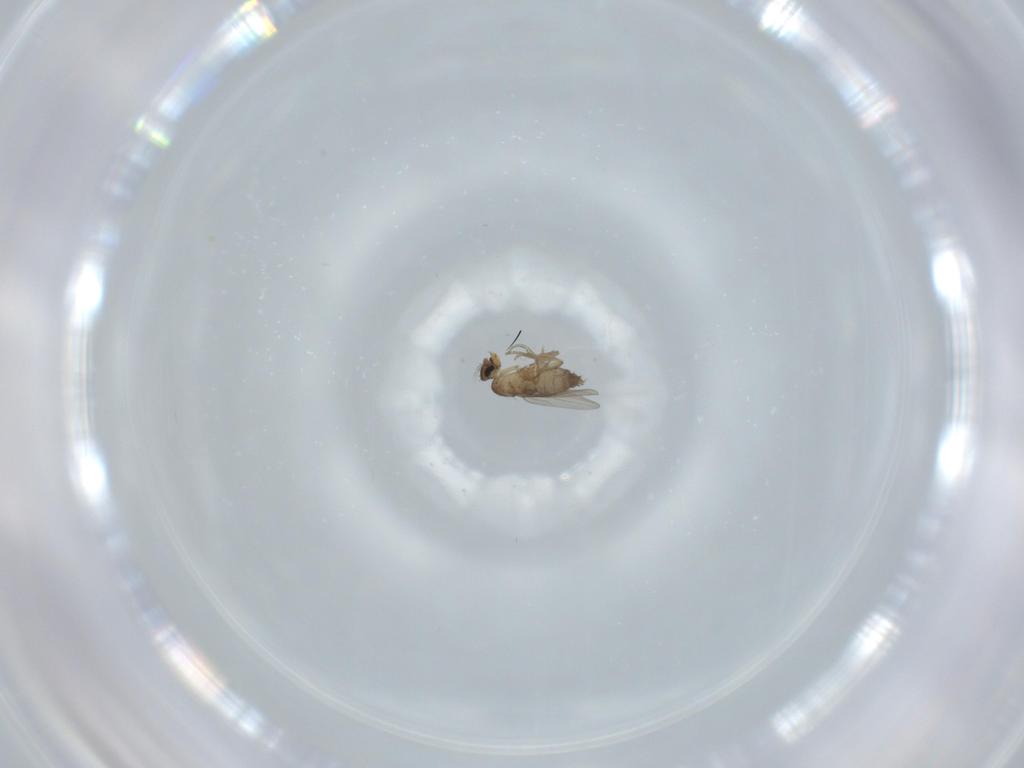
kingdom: Animalia
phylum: Arthropoda
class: Insecta
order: Diptera
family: Phoridae
